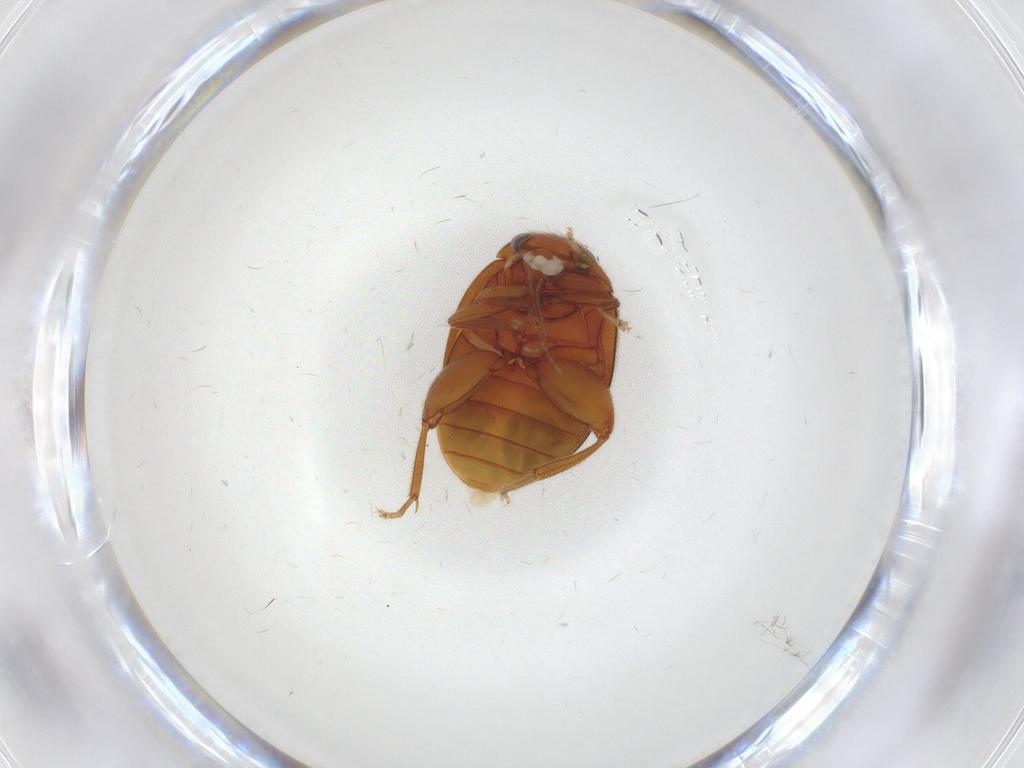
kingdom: Animalia
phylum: Arthropoda
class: Insecta
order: Coleoptera
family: Scirtidae
